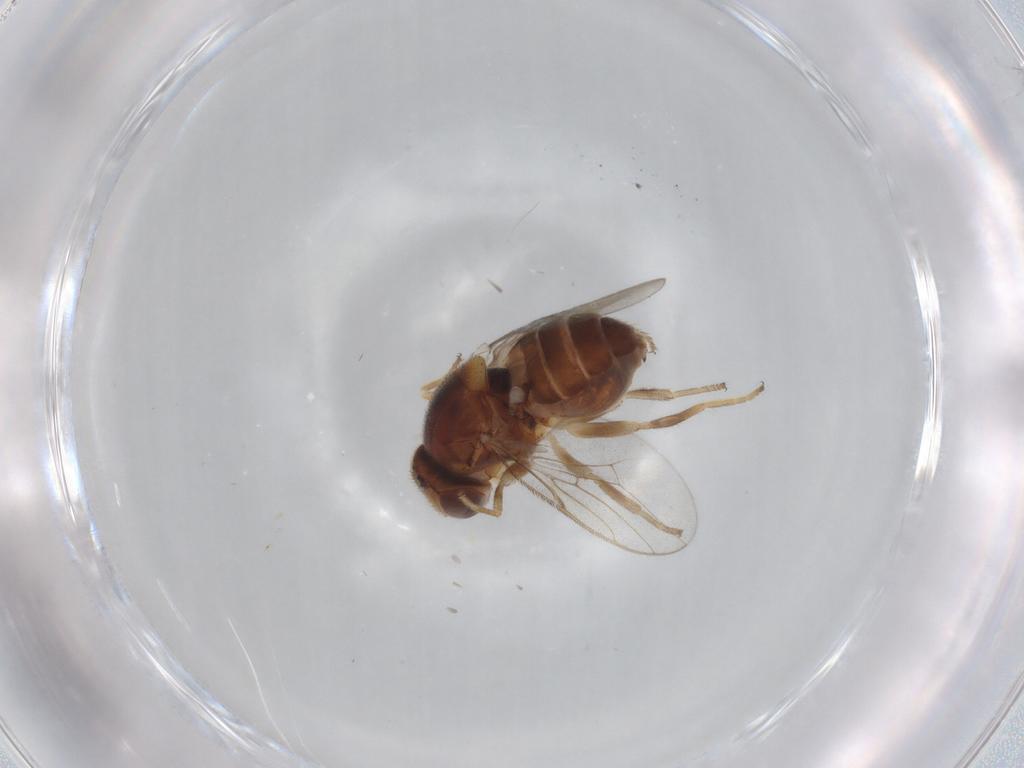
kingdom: Animalia
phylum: Arthropoda
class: Insecta
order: Diptera
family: Chloropidae
